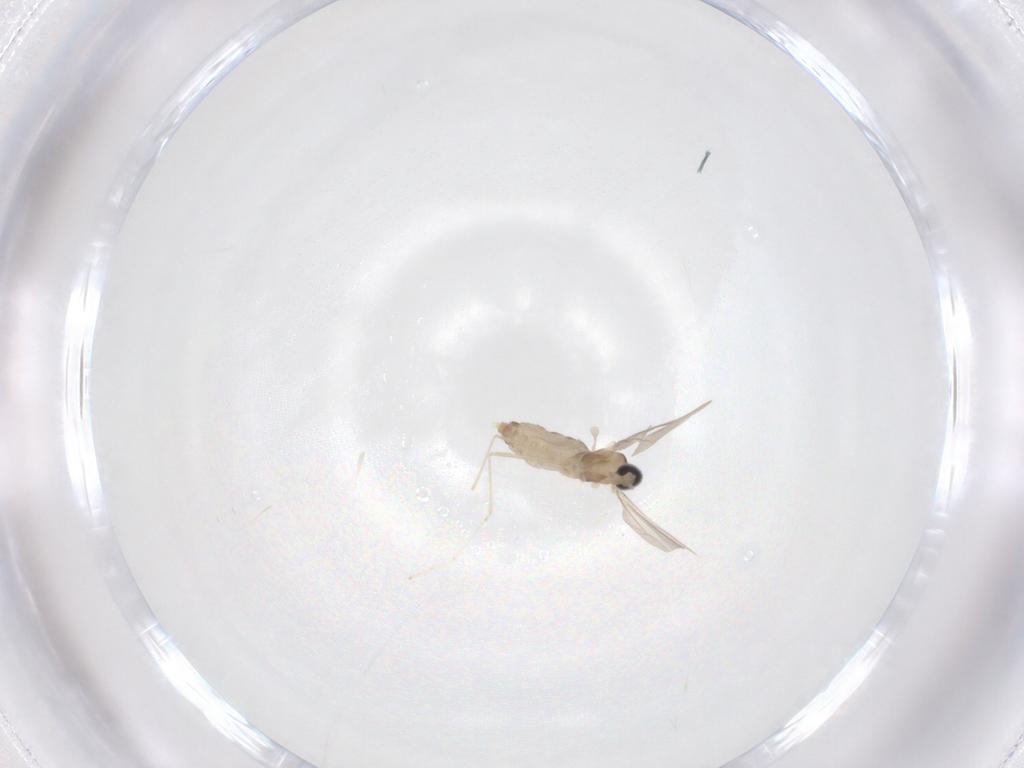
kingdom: Animalia
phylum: Arthropoda
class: Insecta
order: Diptera
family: Cecidomyiidae
